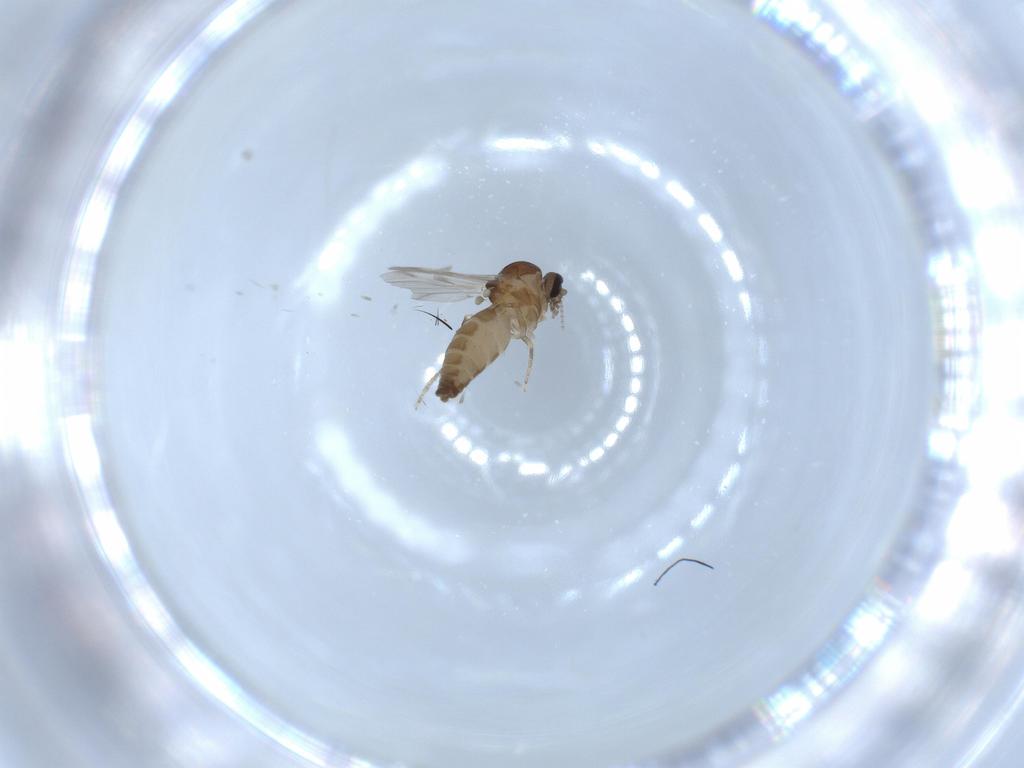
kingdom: Animalia
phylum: Arthropoda
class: Insecta
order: Diptera
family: Ceratopogonidae
